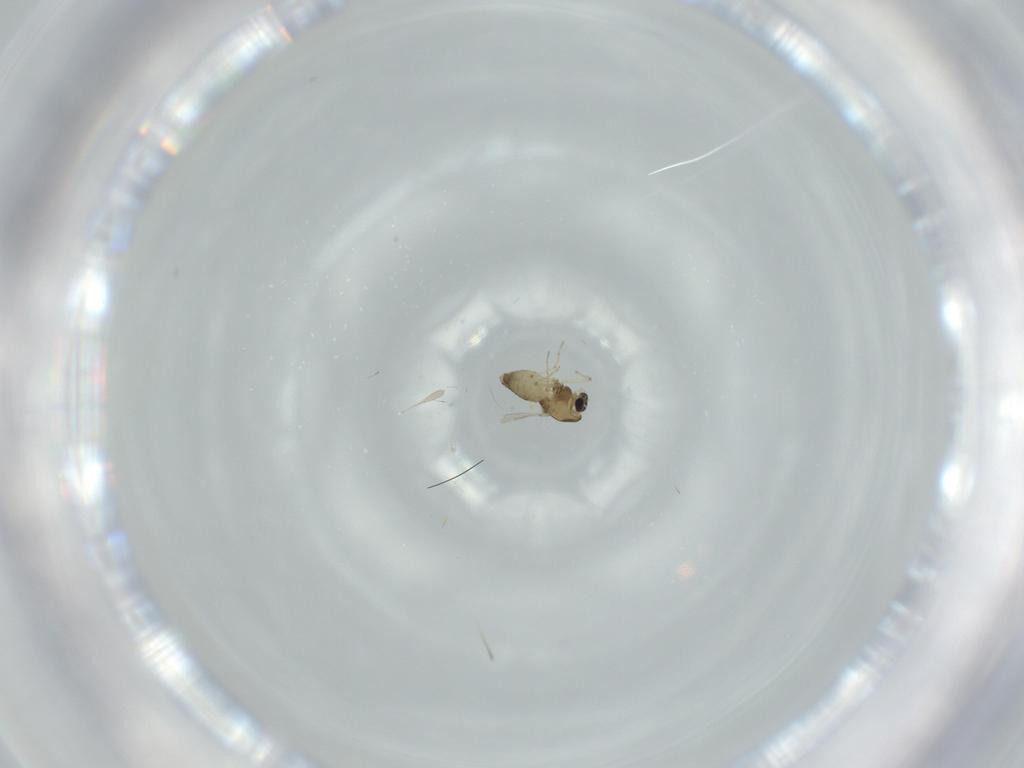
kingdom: Animalia
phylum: Arthropoda
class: Insecta
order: Diptera
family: Chironomidae
